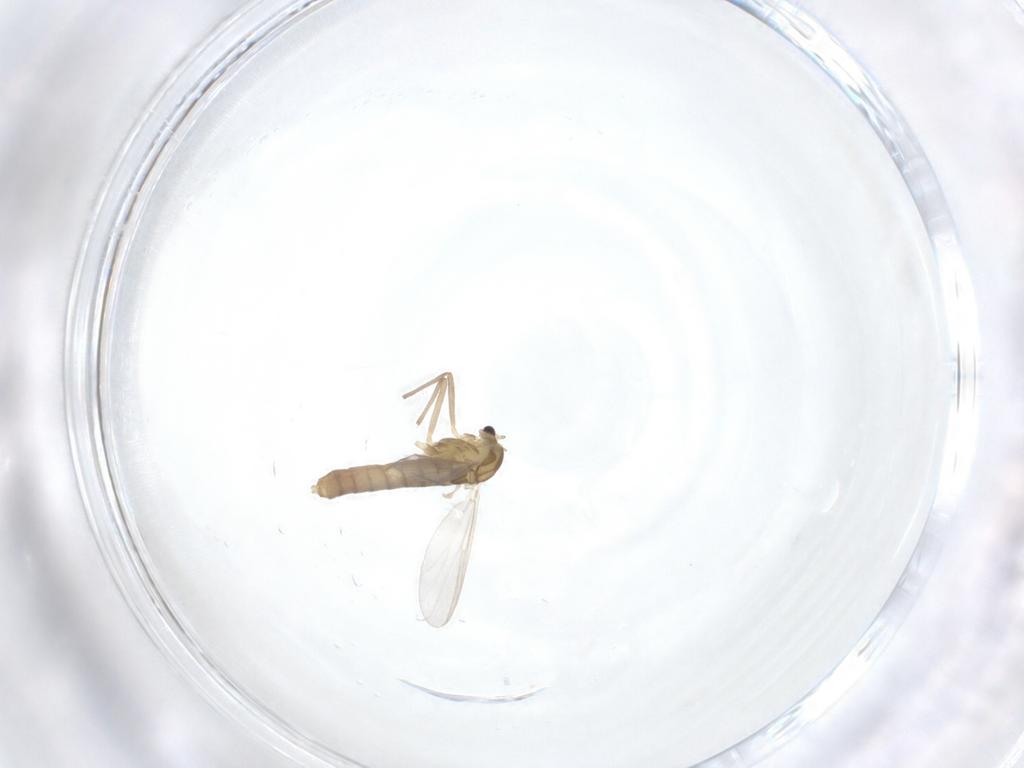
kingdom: Animalia
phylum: Arthropoda
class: Insecta
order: Diptera
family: Chironomidae
